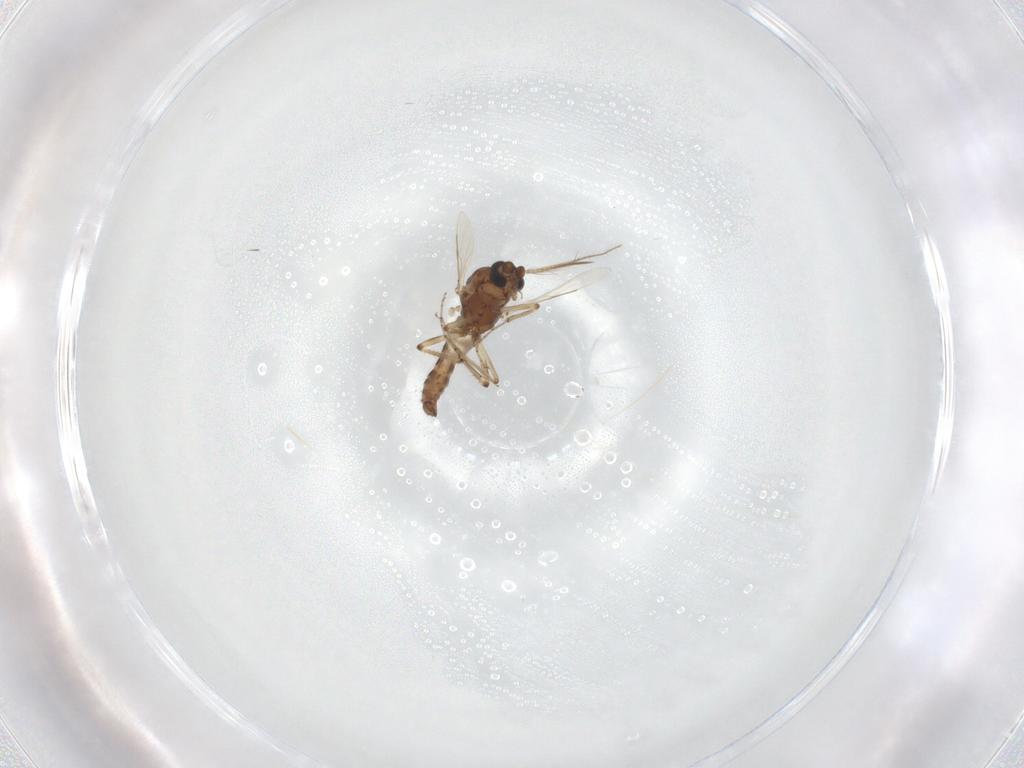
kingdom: Animalia
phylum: Arthropoda
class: Insecta
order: Diptera
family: Ceratopogonidae
